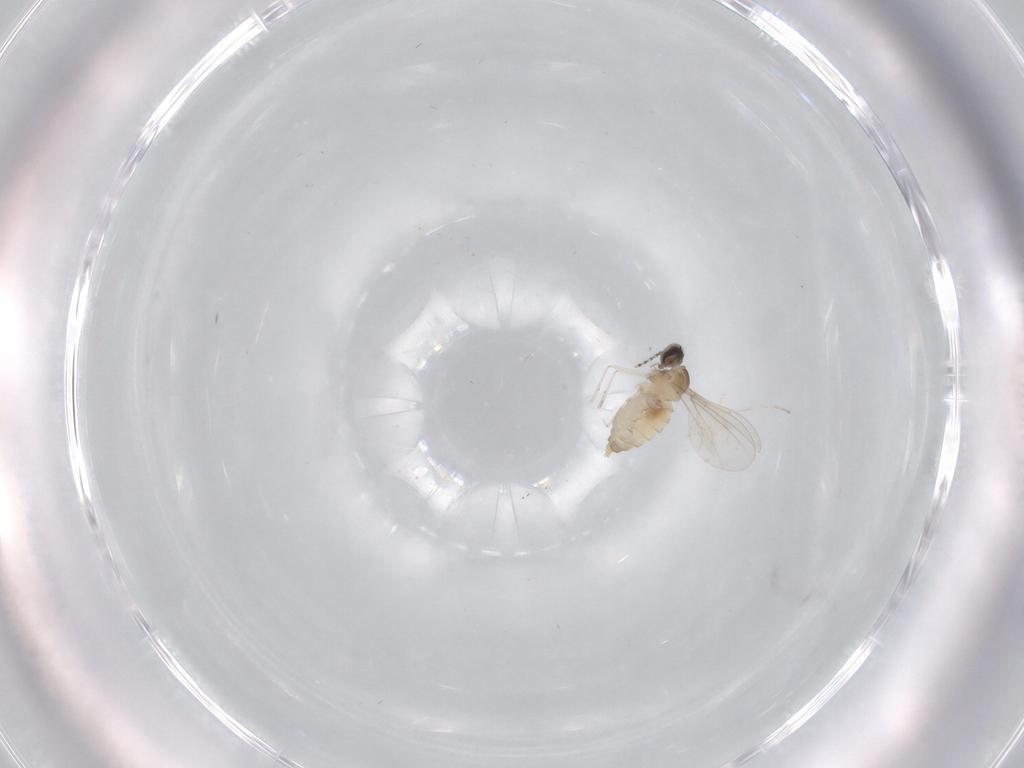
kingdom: Animalia
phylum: Arthropoda
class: Insecta
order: Diptera
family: Cecidomyiidae
